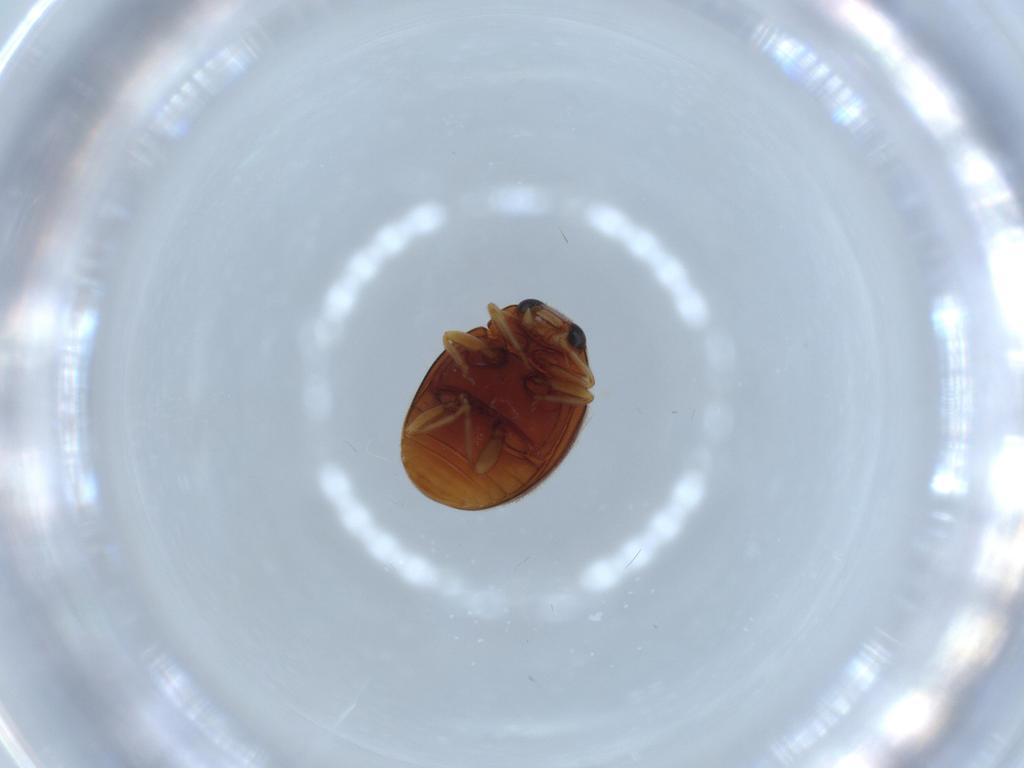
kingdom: Animalia
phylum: Arthropoda
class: Insecta
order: Coleoptera
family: Coccinellidae
